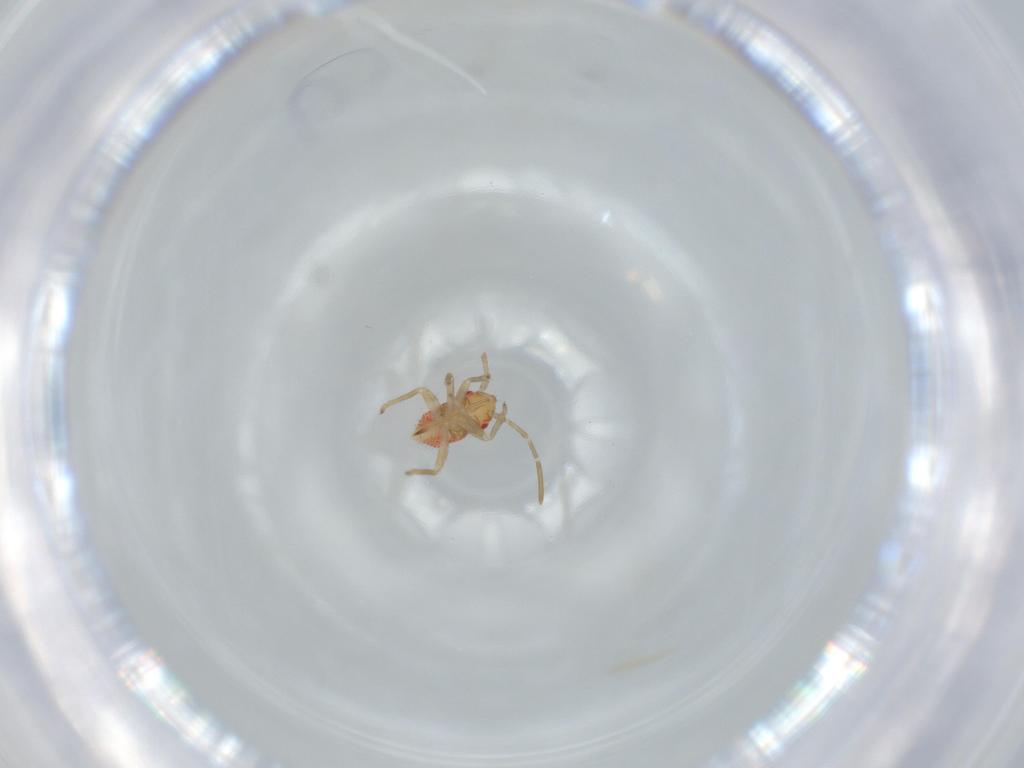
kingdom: Animalia
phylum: Arthropoda
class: Insecta
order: Hemiptera
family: Miridae
